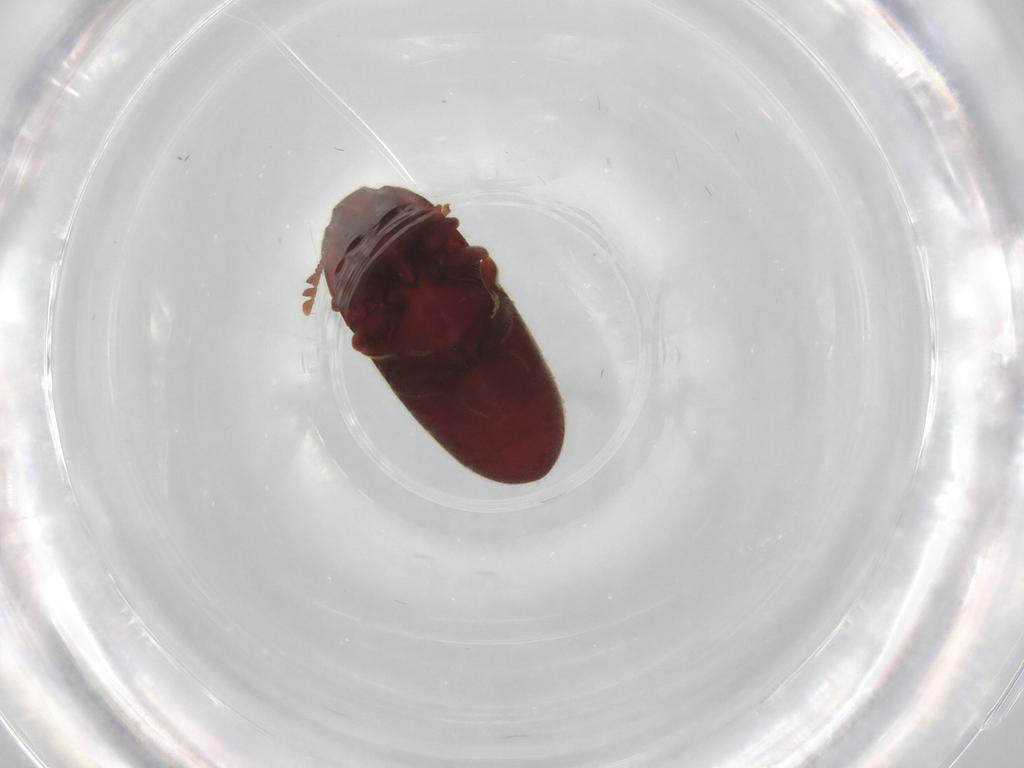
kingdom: Animalia
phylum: Arthropoda
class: Insecta
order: Coleoptera
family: Throscidae
